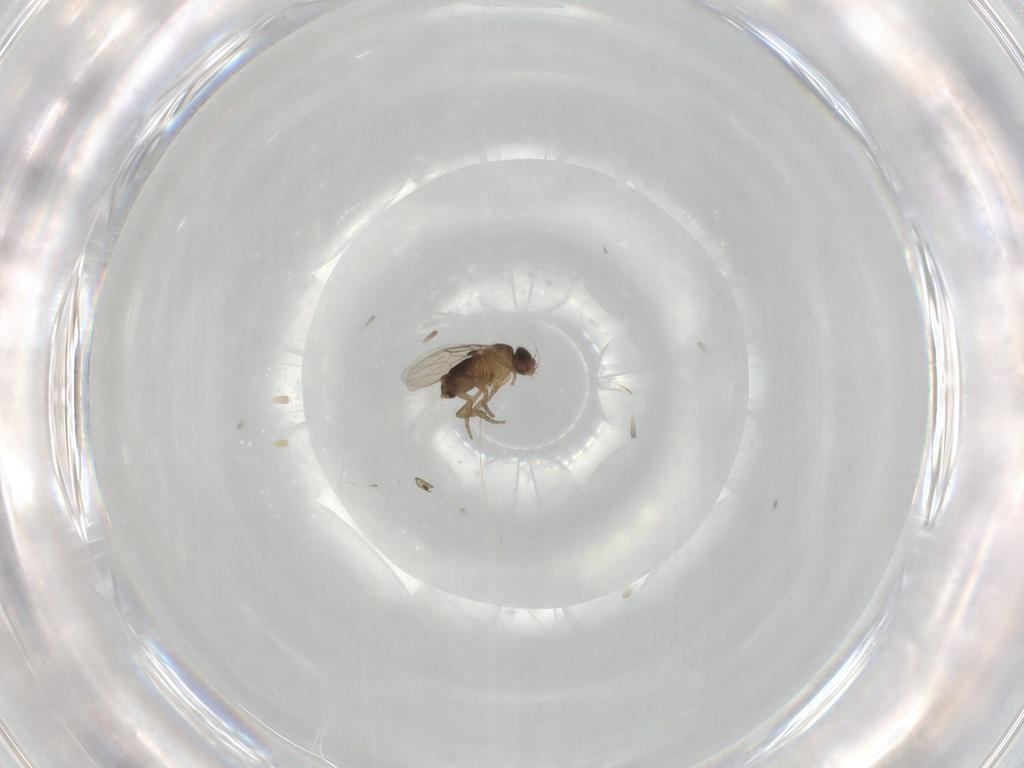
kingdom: Animalia
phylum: Arthropoda
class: Insecta
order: Diptera
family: Phoridae
